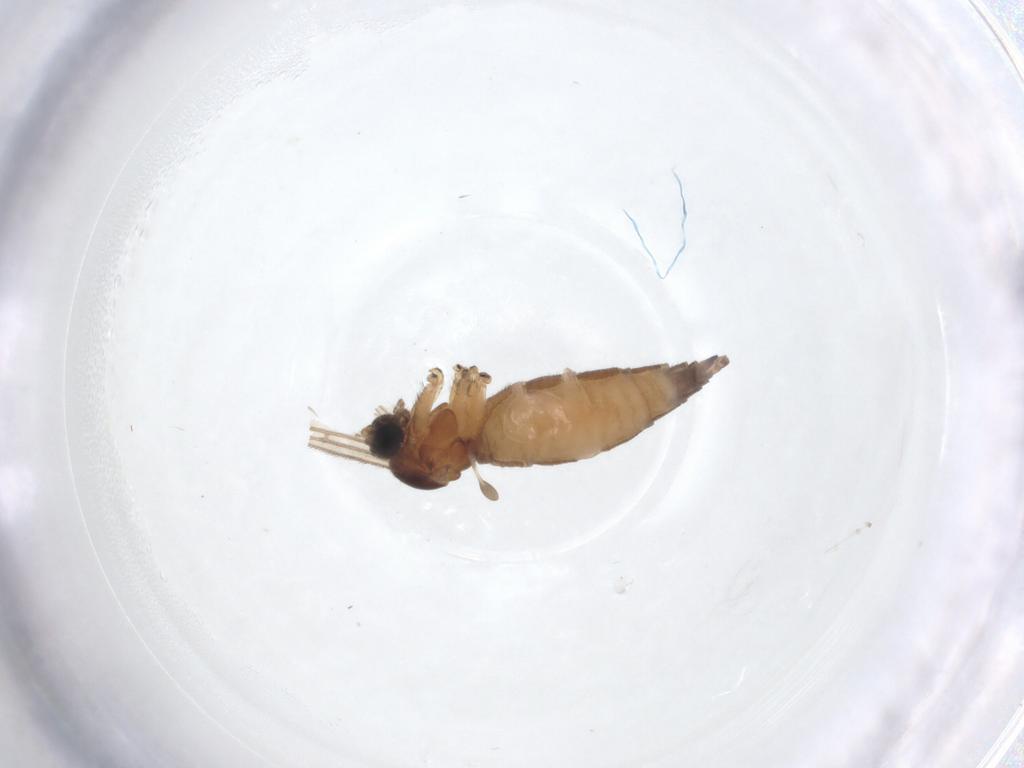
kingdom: Animalia
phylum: Arthropoda
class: Insecta
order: Diptera
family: Sciaridae
